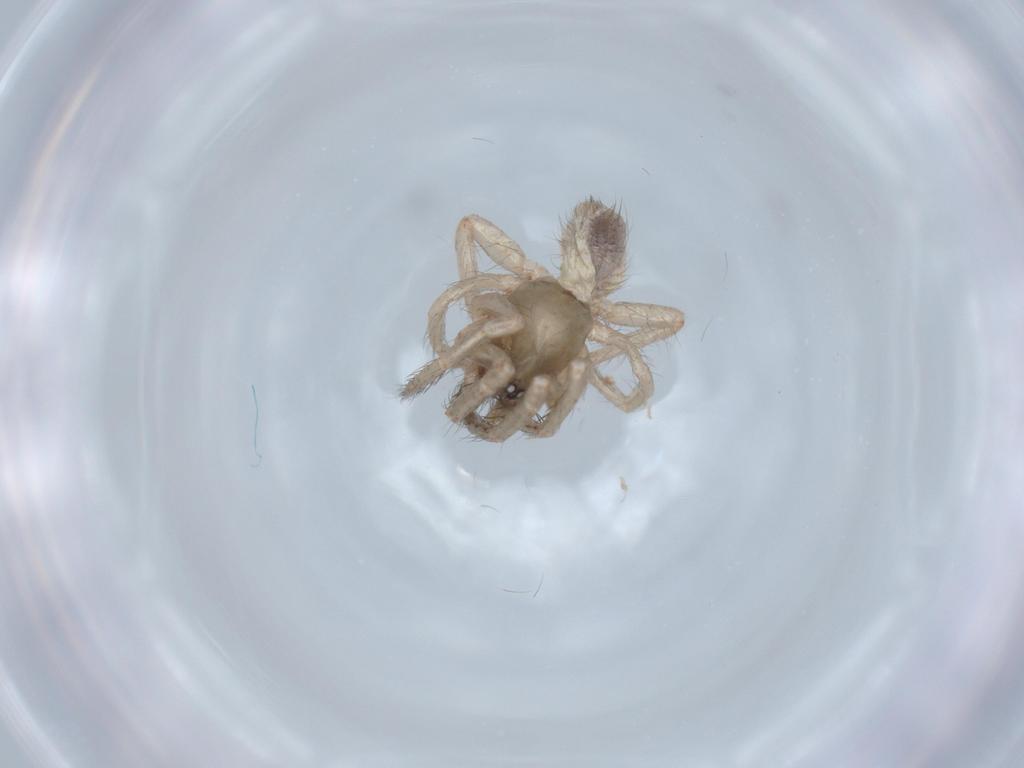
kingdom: Animalia
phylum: Arthropoda
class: Arachnida
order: Araneae
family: Segestriidae
